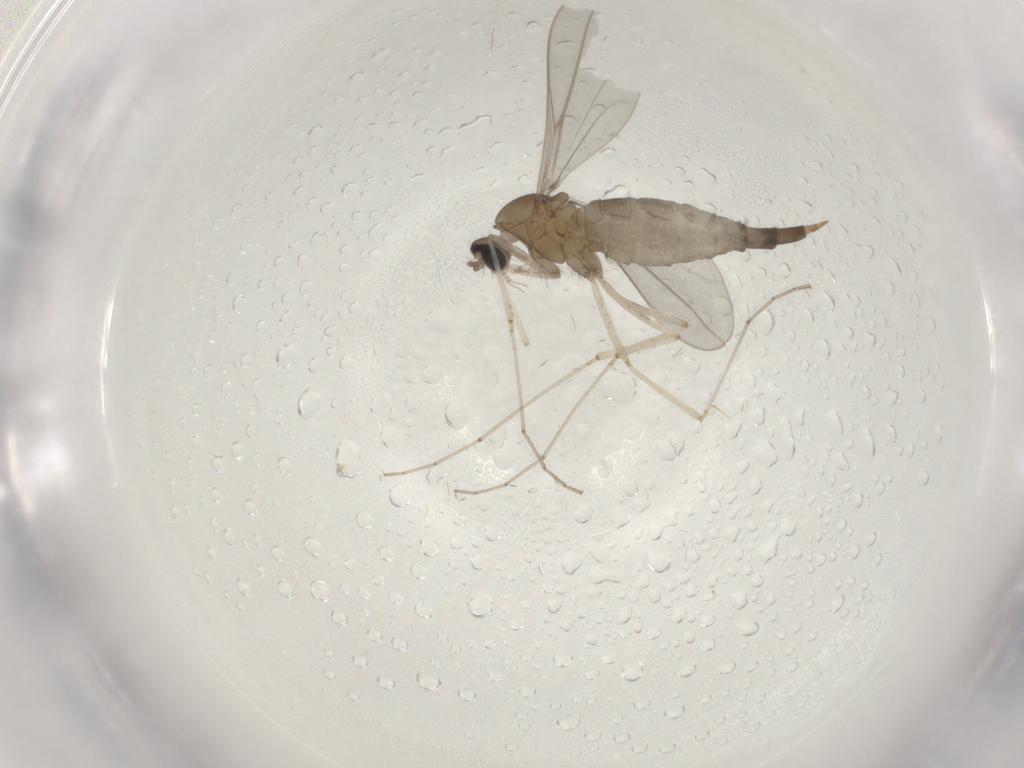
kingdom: Animalia
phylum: Arthropoda
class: Insecta
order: Diptera
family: Cecidomyiidae
